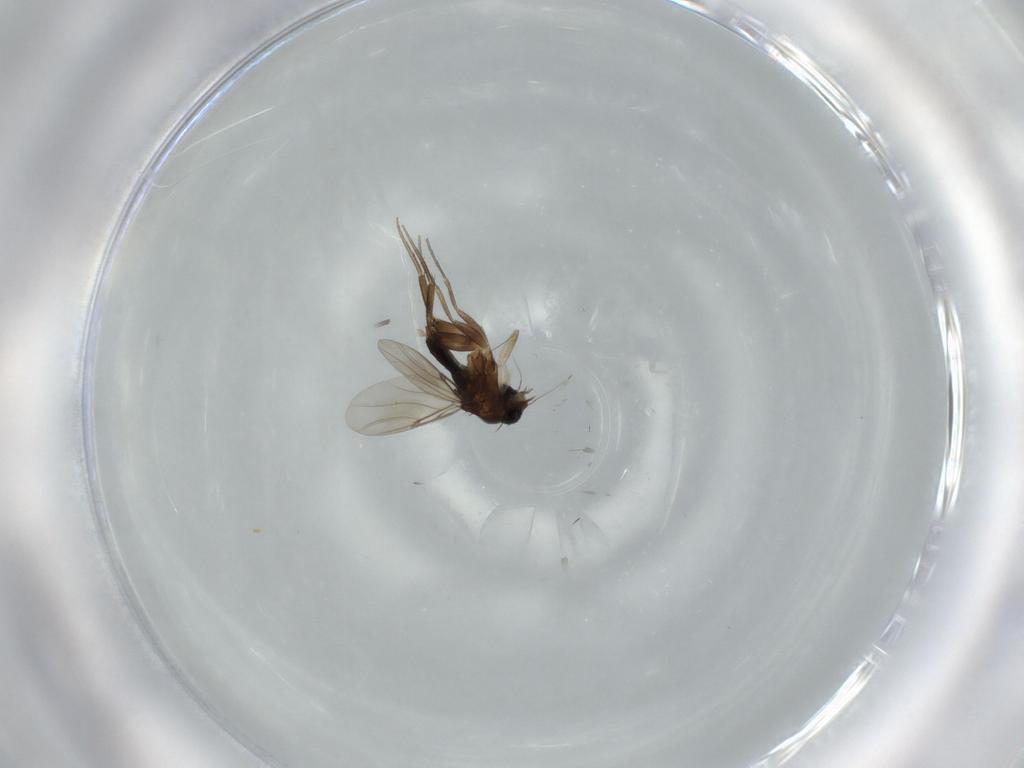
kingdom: Animalia
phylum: Arthropoda
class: Insecta
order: Diptera
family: Phoridae
